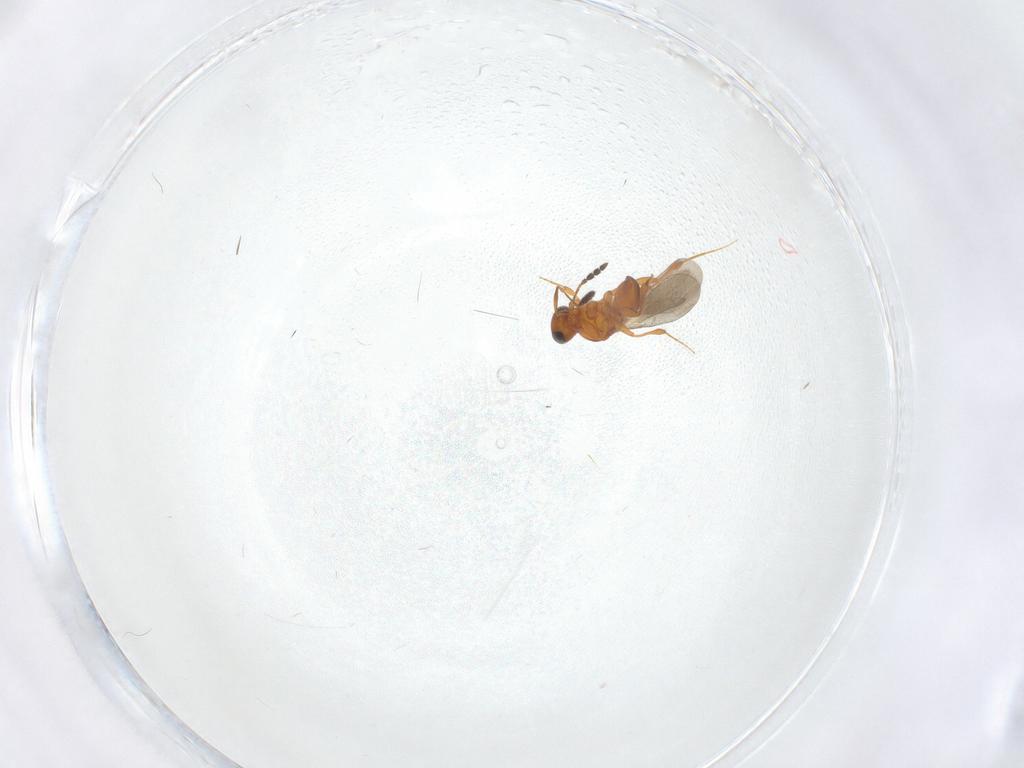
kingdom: Animalia
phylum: Arthropoda
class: Insecta
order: Hymenoptera
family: Platygastridae
